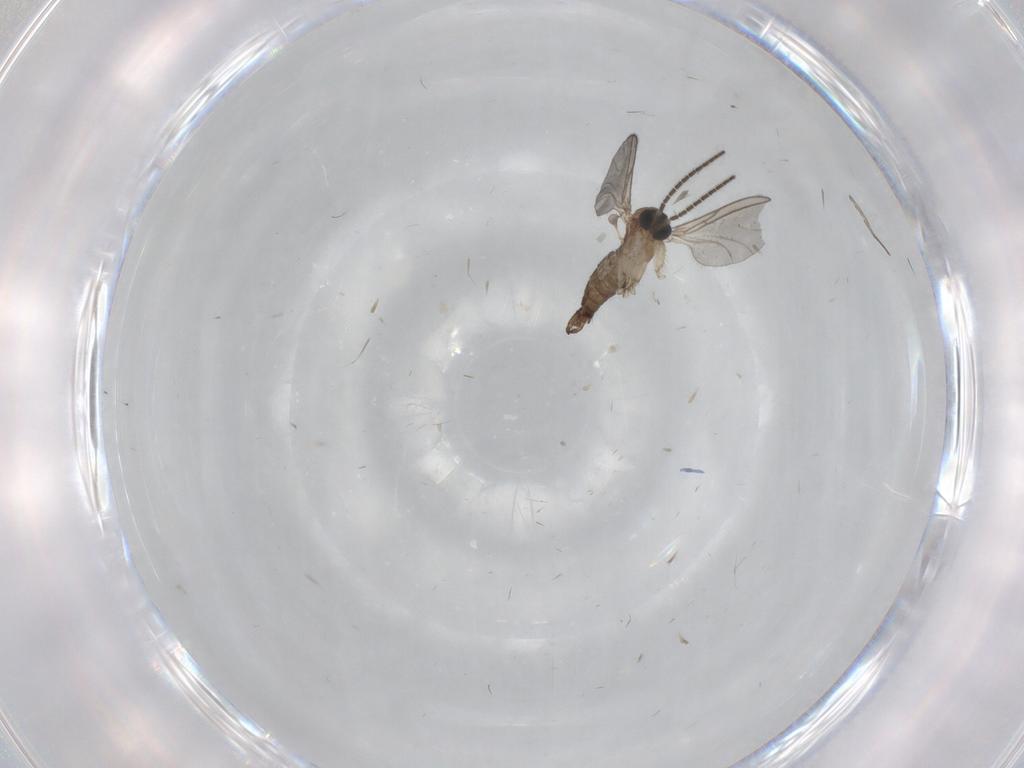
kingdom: Animalia
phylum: Arthropoda
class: Insecta
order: Diptera
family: Sciaridae
